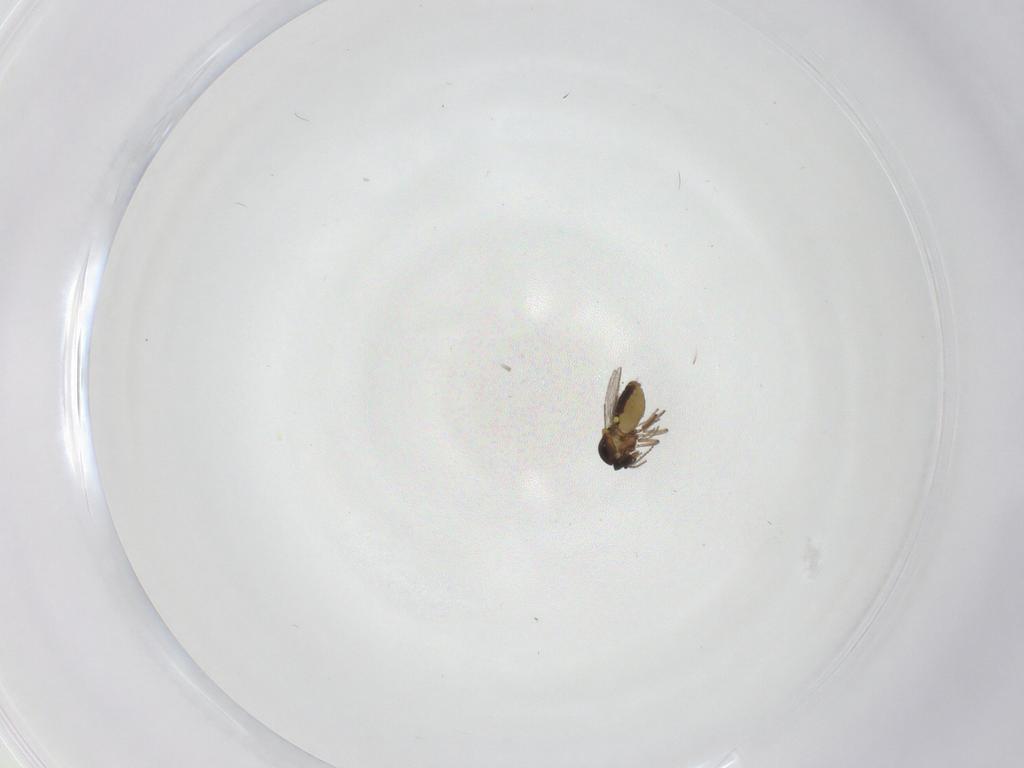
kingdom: Animalia
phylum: Arthropoda
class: Insecta
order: Diptera
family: Ceratopogonidae
